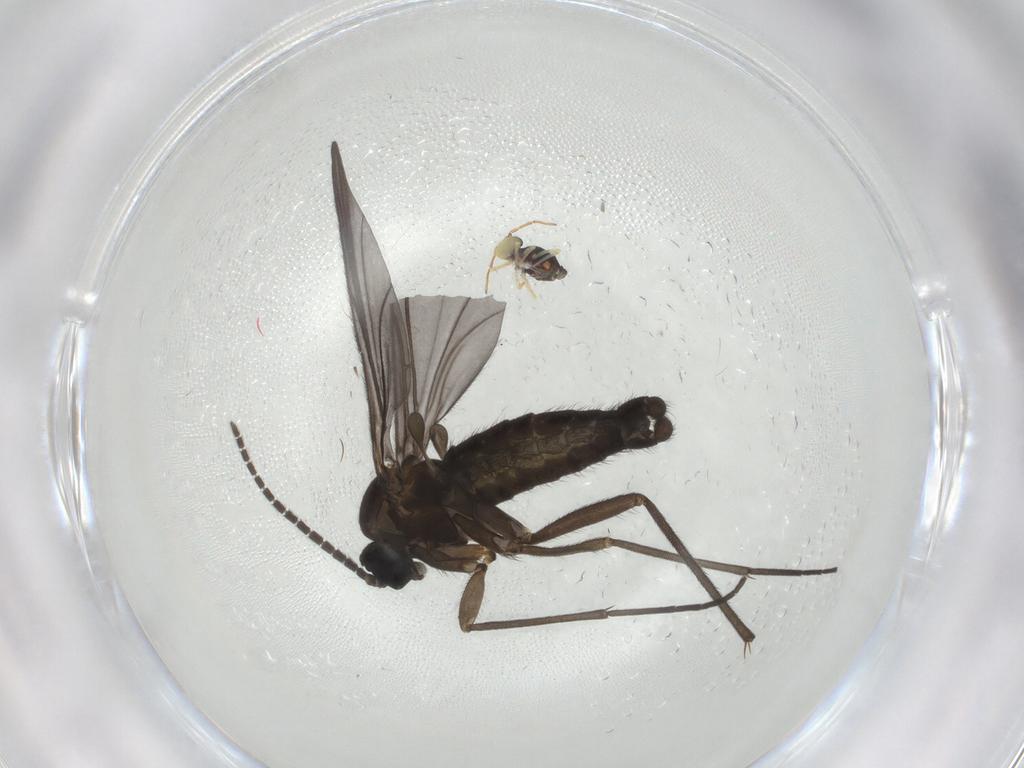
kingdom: Animalia
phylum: Arthropoda
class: Insecta
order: Diptera
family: Sciaridae
